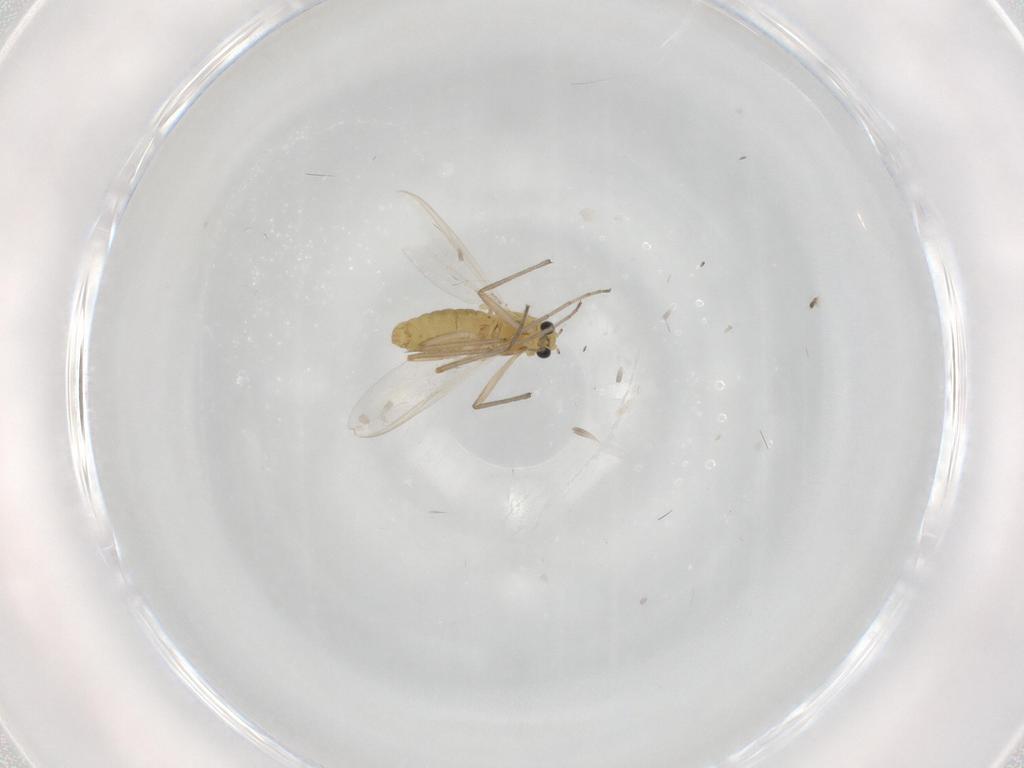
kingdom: Animalia
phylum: Arthropoda
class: Insecta
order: Diptera
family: Chironomidae
